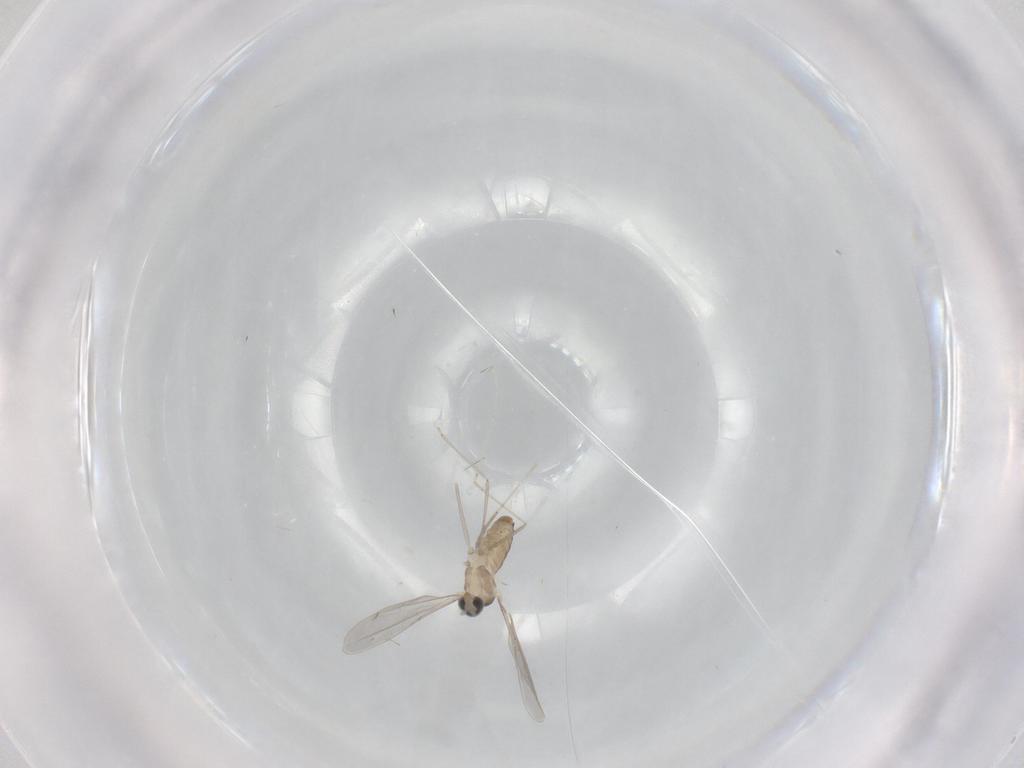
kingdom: Animalia
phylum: Arthropoda
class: Insecta
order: Diptera
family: Cecidomyiidae
